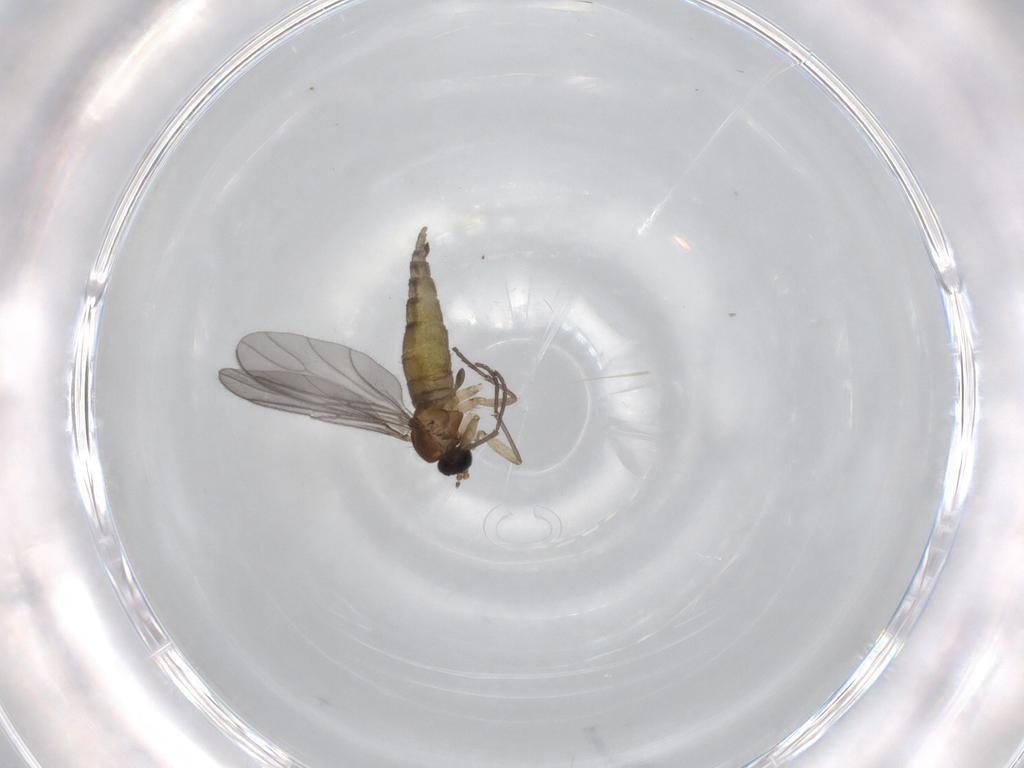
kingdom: Animalia
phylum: Arthropoda
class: Insecta
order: Diptera
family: Sciaridae
